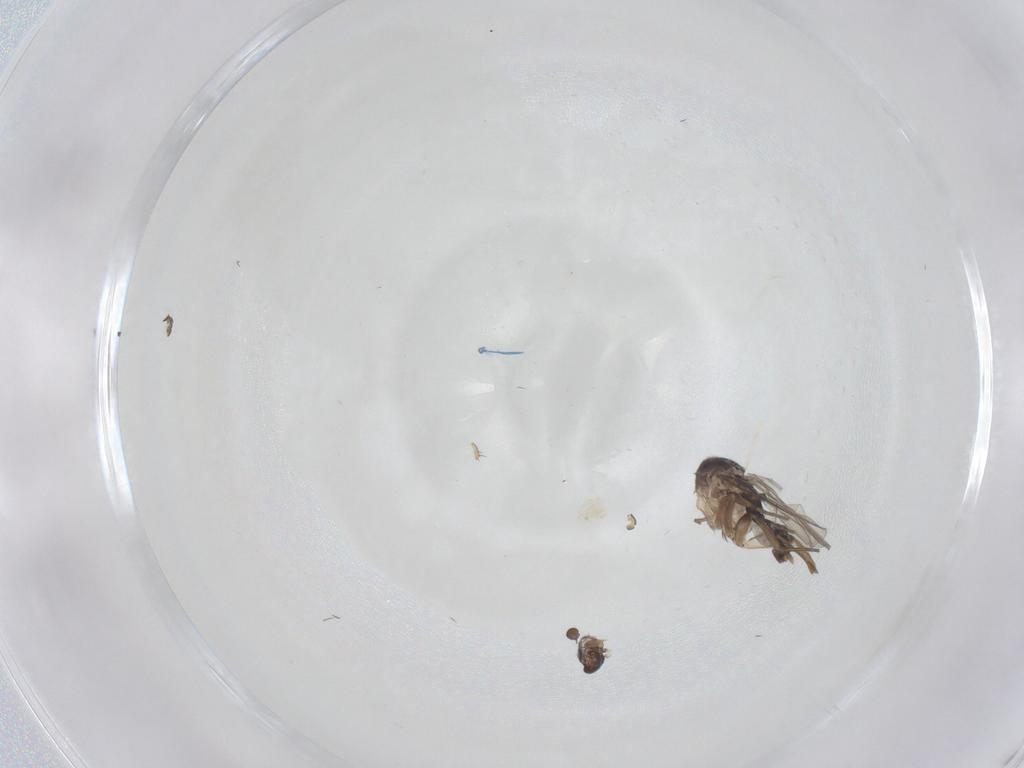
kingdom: Animalia
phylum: Arthropoda
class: Insecta
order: Diptera
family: Phoridae
